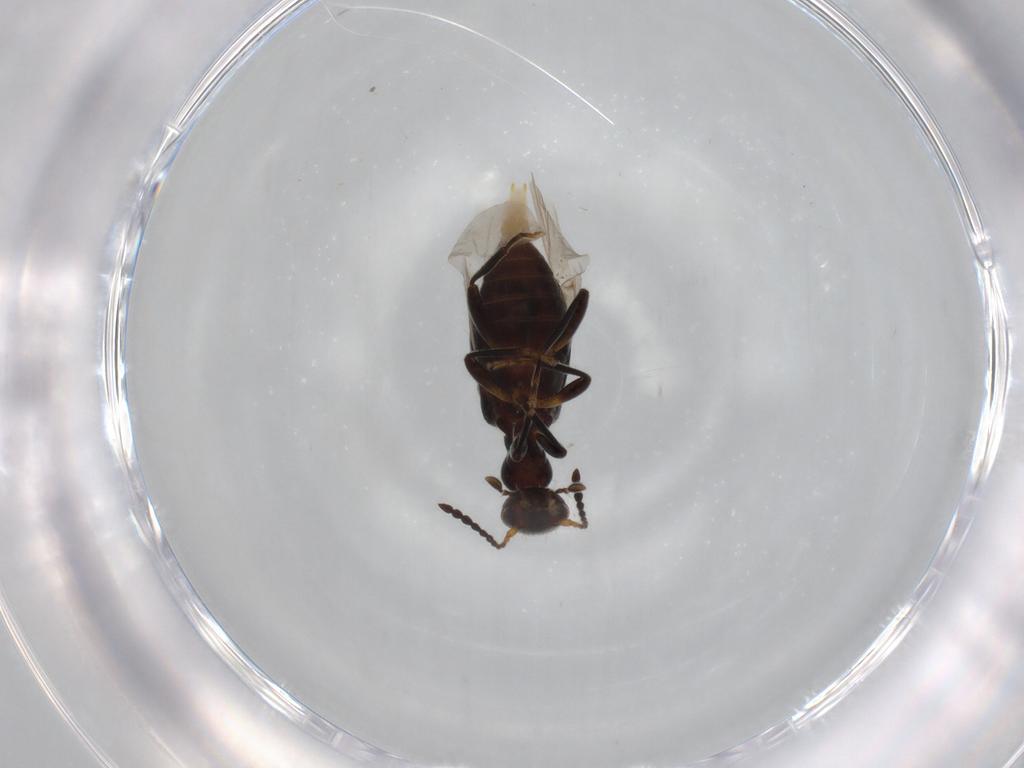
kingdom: Animalia
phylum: Arthropoda
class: Insecta
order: Coleoptera
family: Anthicidae
